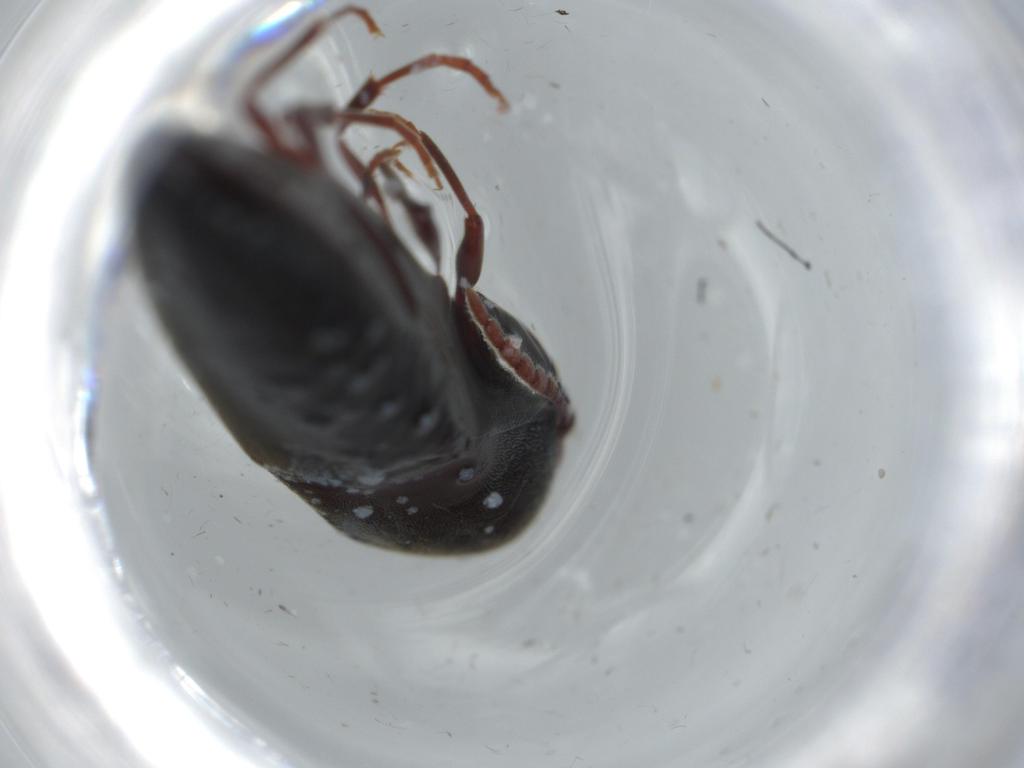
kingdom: Animalia
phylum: Arthropoda
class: Insecta
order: Coleoptera
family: Eucnemidae
